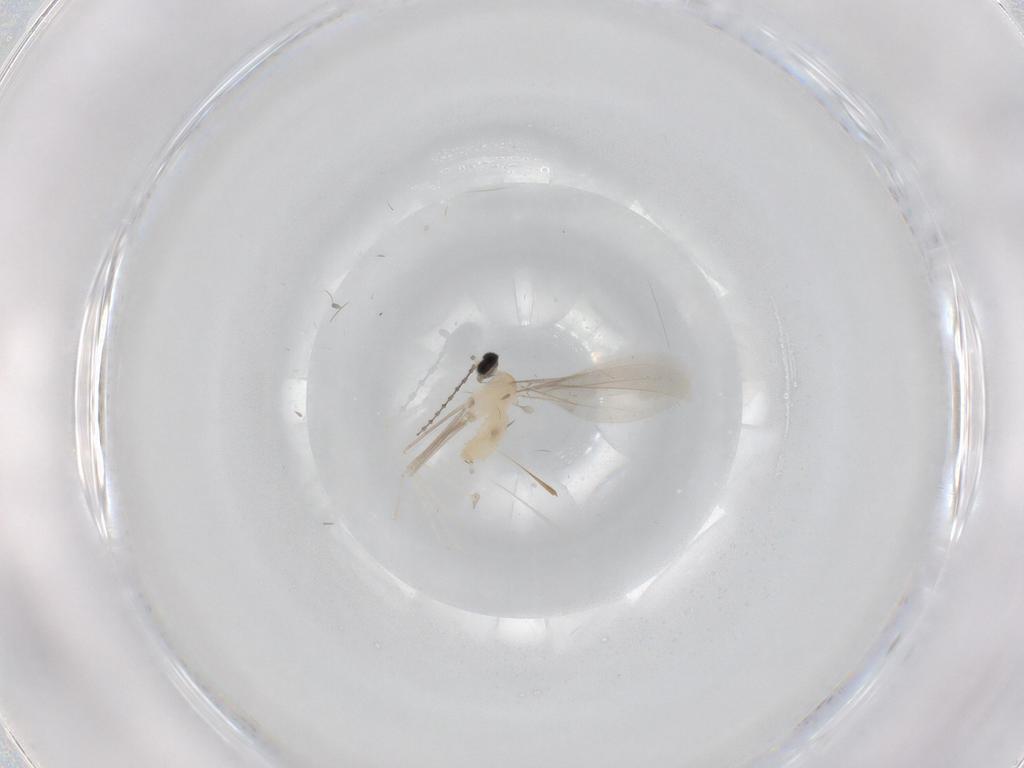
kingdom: Animalia
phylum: Arthropoda
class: Insecta
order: Diptera
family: Cecidomyiidae
